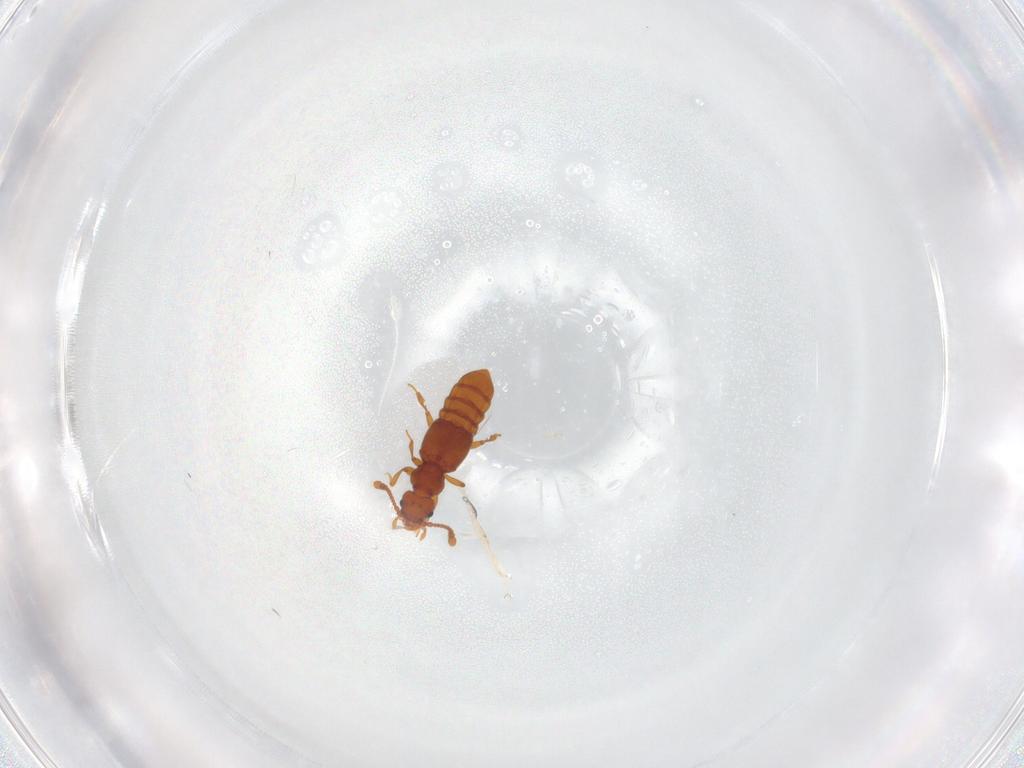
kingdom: Animalia
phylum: Arthropoda
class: Insecta
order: Coleoptera
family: Staphylinidae
